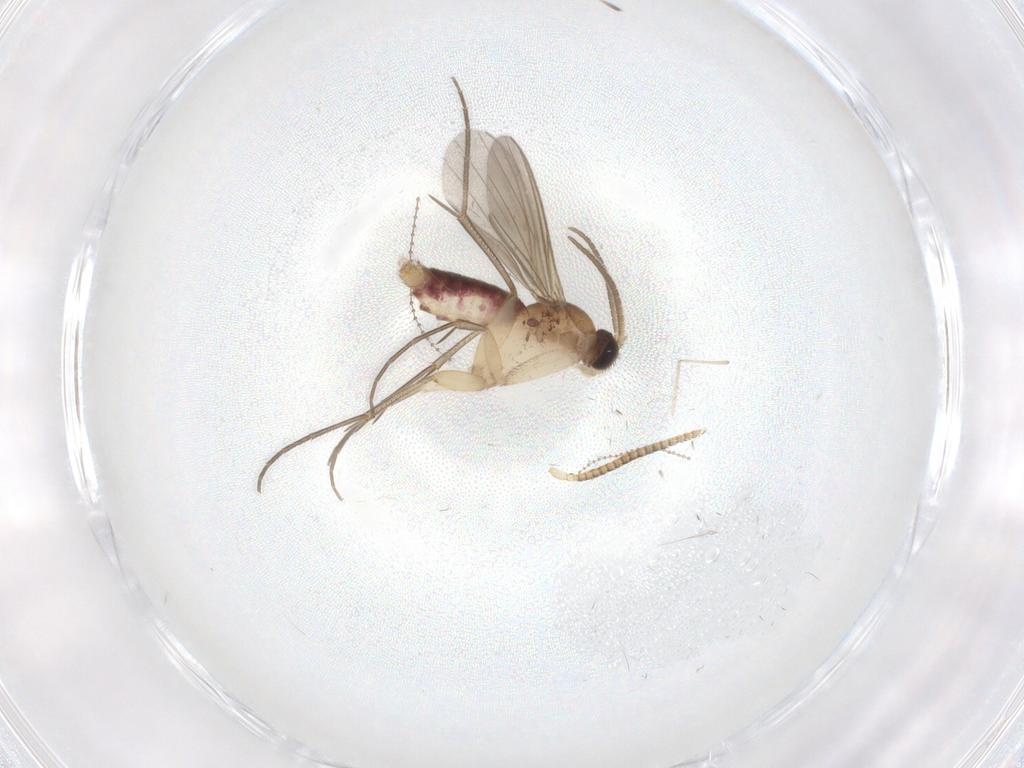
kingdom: Animalia
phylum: Arthropoda
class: Insecta
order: Diptera
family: Mycetophilidae
